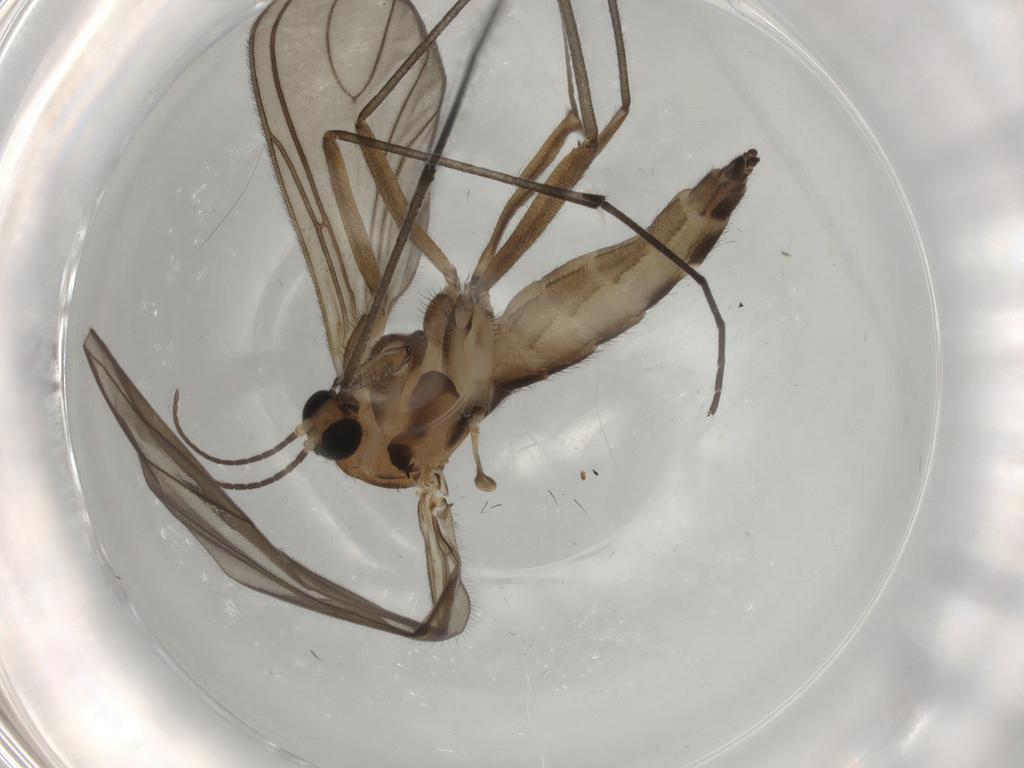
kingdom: Animalia
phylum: Arthropoda
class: Insecta
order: Diptera
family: Sciaridae
